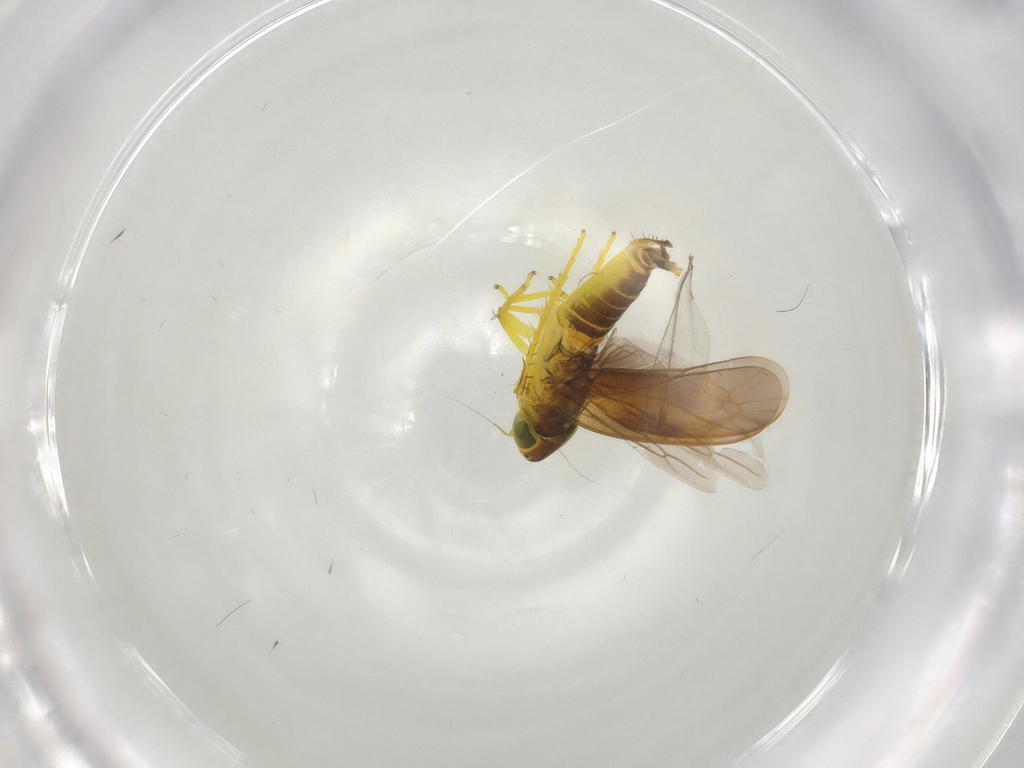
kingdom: Animalia
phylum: Arthropoda
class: Insecta
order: Hemiptera
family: Cicadellidae
